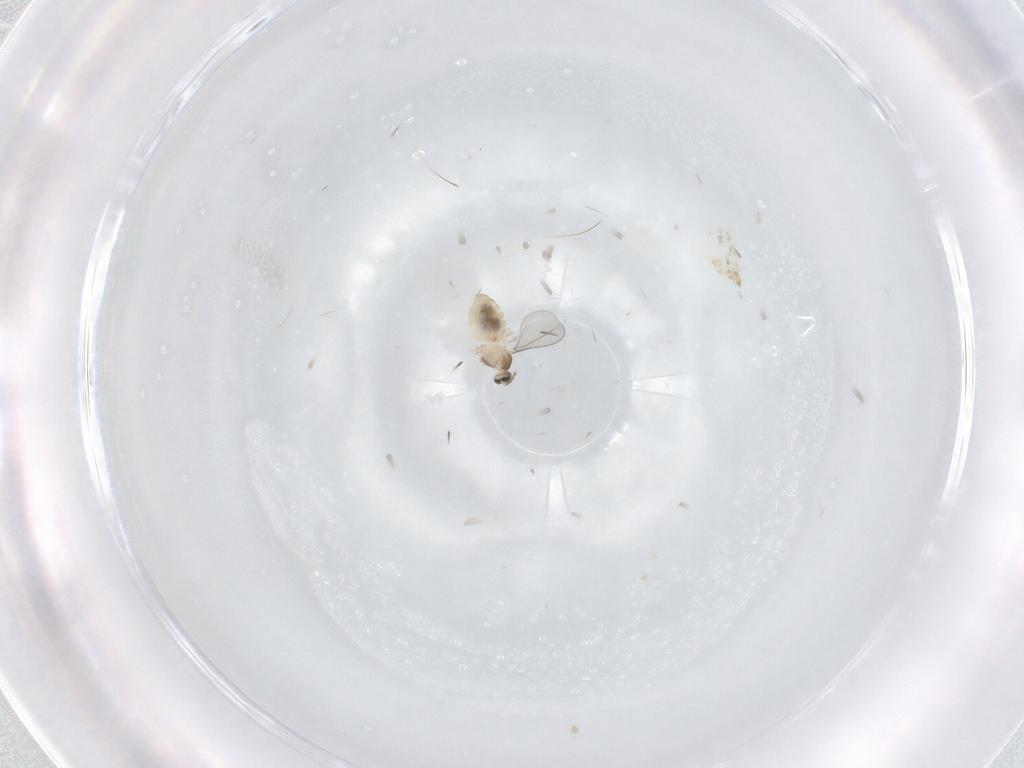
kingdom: Animalia
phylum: Arthropoda
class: Insecta
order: Diptera
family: Cecidomyiidae
